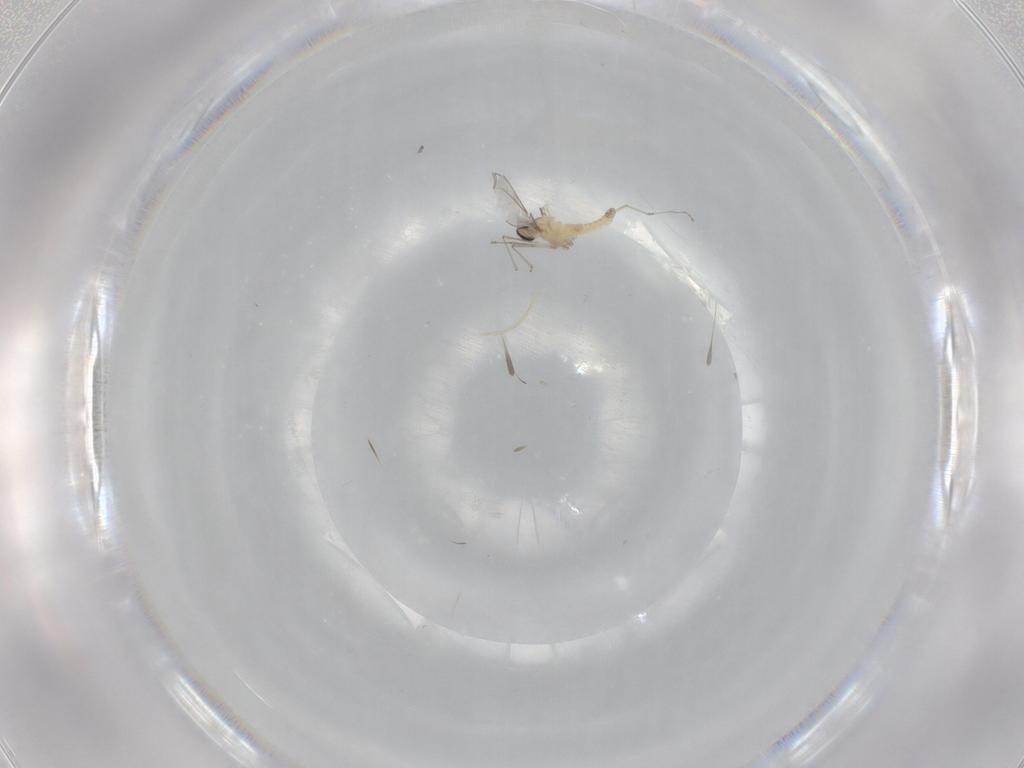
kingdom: Animalia
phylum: Arthropoda
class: Insecta
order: Diptera
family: Cecidomyiidae
